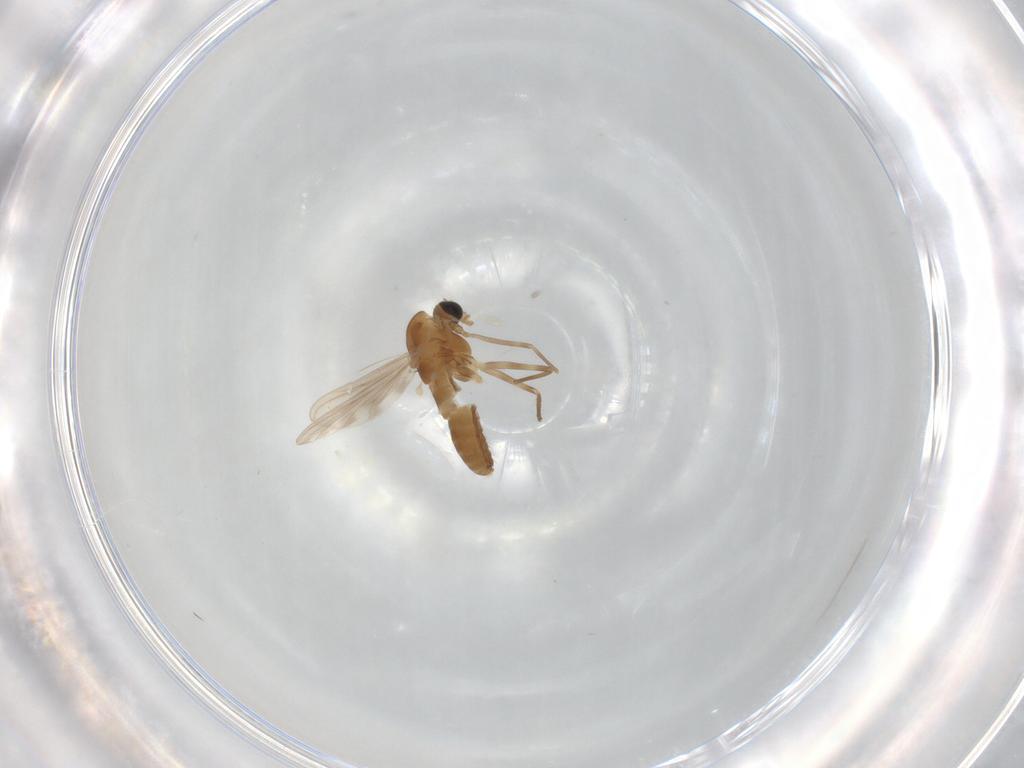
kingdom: Animalia
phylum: Arthropoda
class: Insecta
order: Diptera
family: Chironomidae
